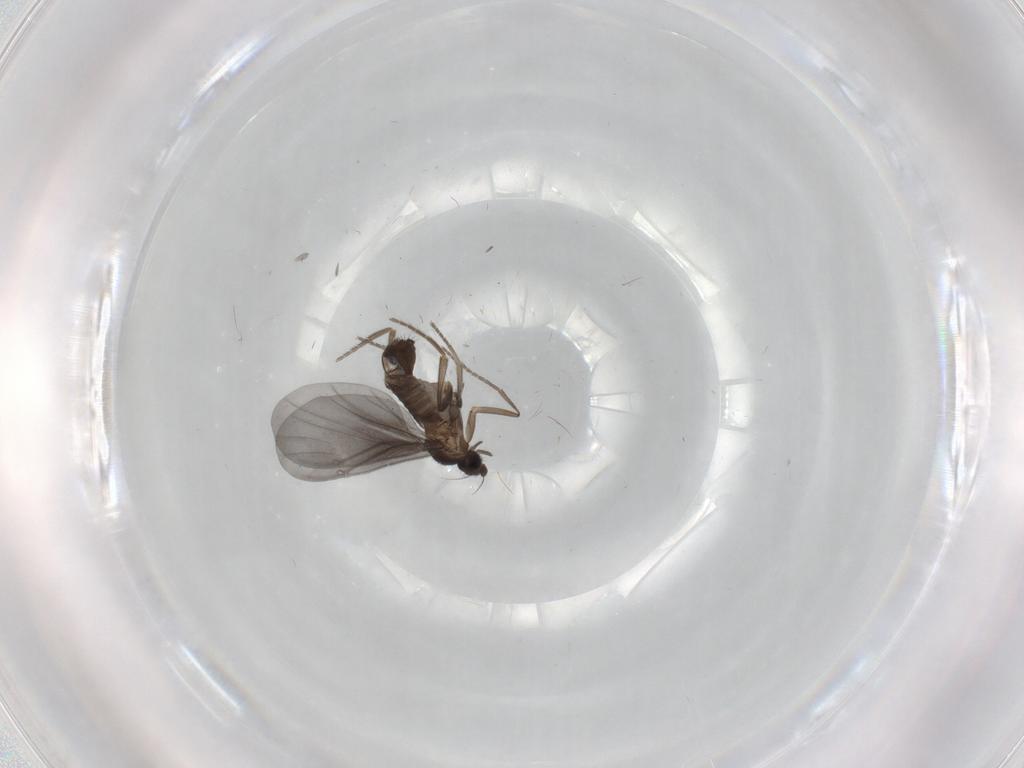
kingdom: Animalia
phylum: Arthropoda
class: Insecta
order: Diptera
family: Phoridae
